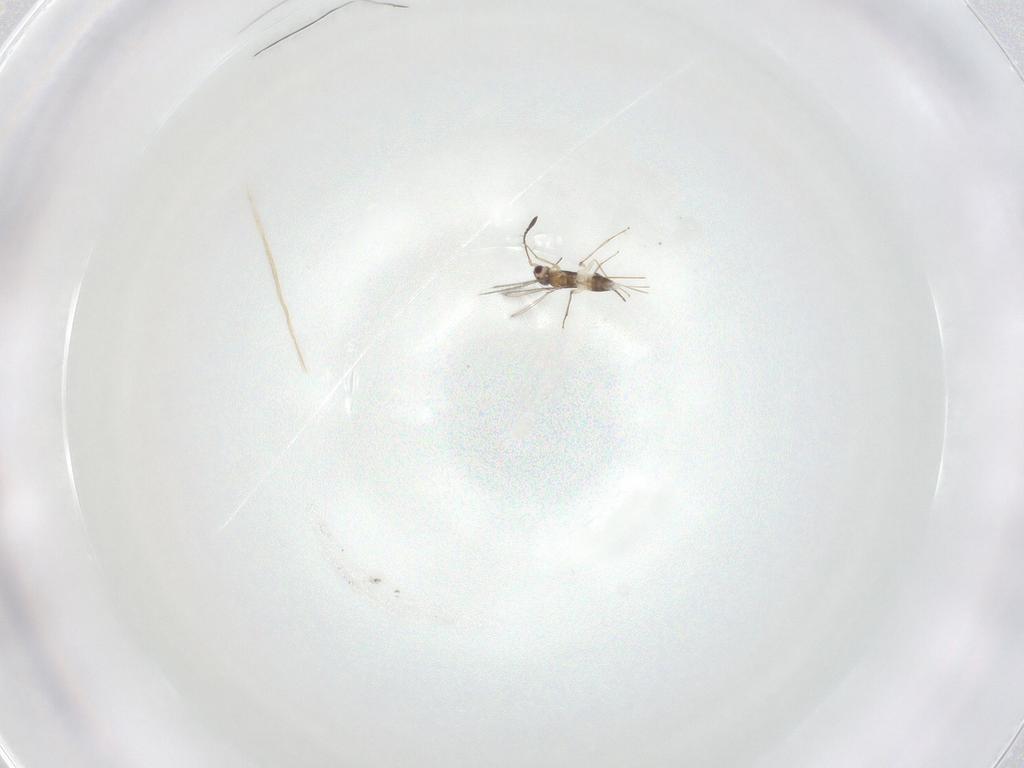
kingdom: Animalia
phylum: Arthropoda
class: Insecta
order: Hymenoptera
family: Mymaridae
